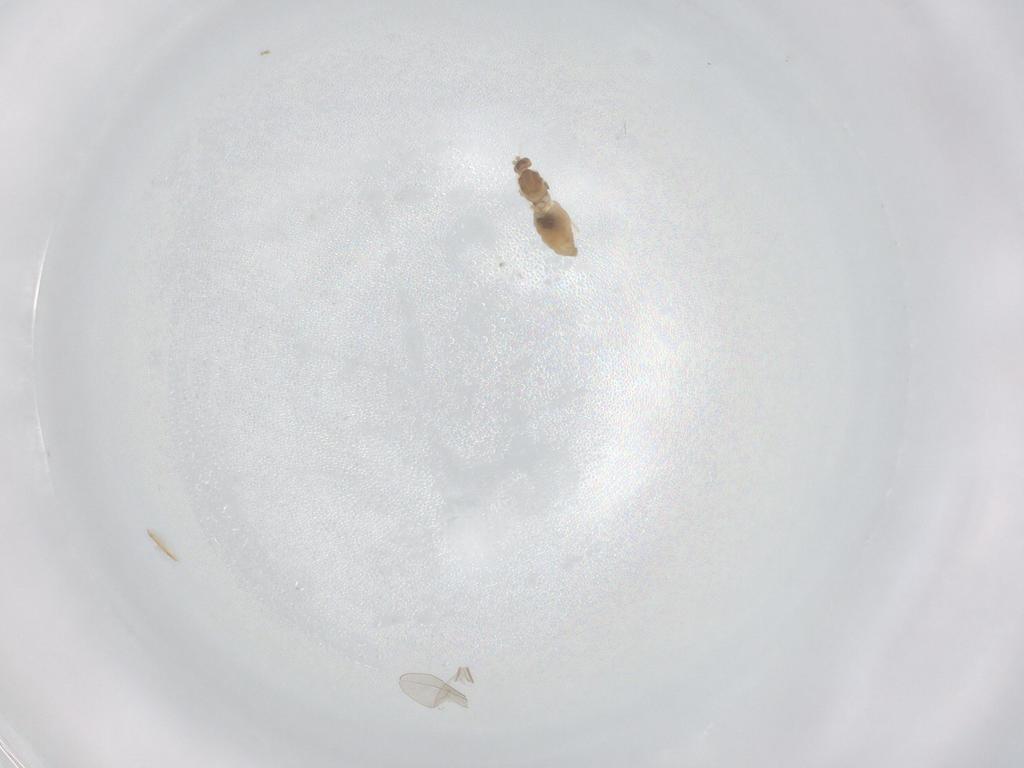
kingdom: Animalia
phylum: Arthropoda
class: Insecta
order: Diptera
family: Cecidomyiidae
